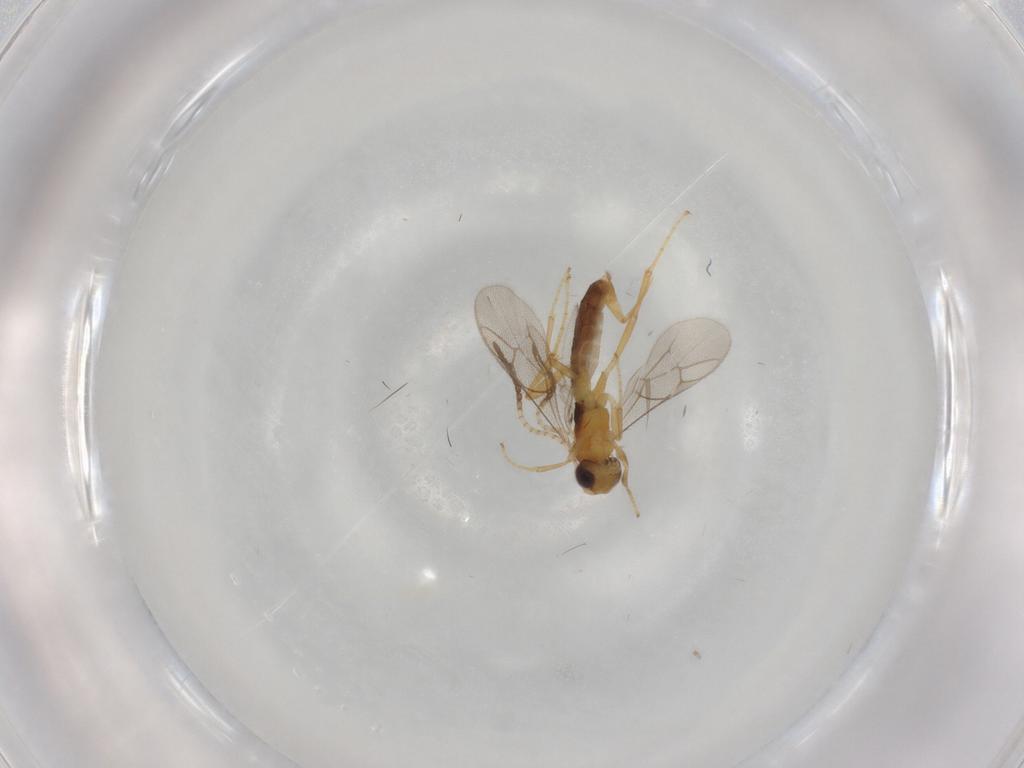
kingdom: Animalia
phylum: Arthropoda
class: Insecta
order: Hymenoptera
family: Ichneumonidae
